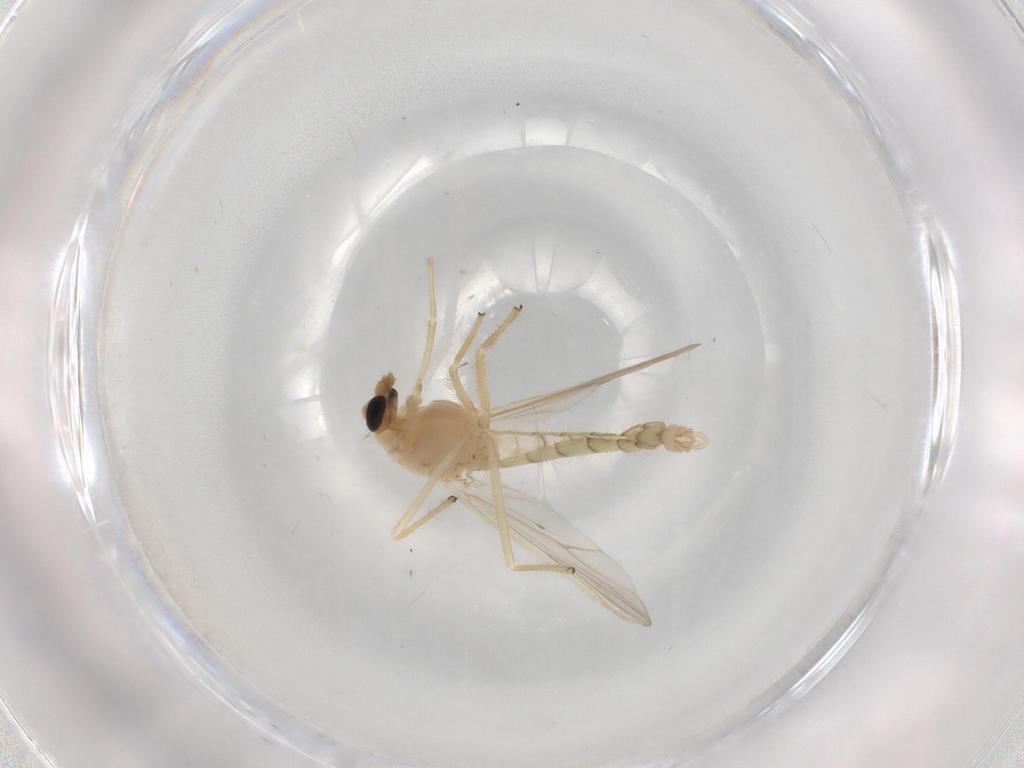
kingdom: Animalia
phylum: Arthropoda
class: Insecta
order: Diptera
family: Chironomidae
